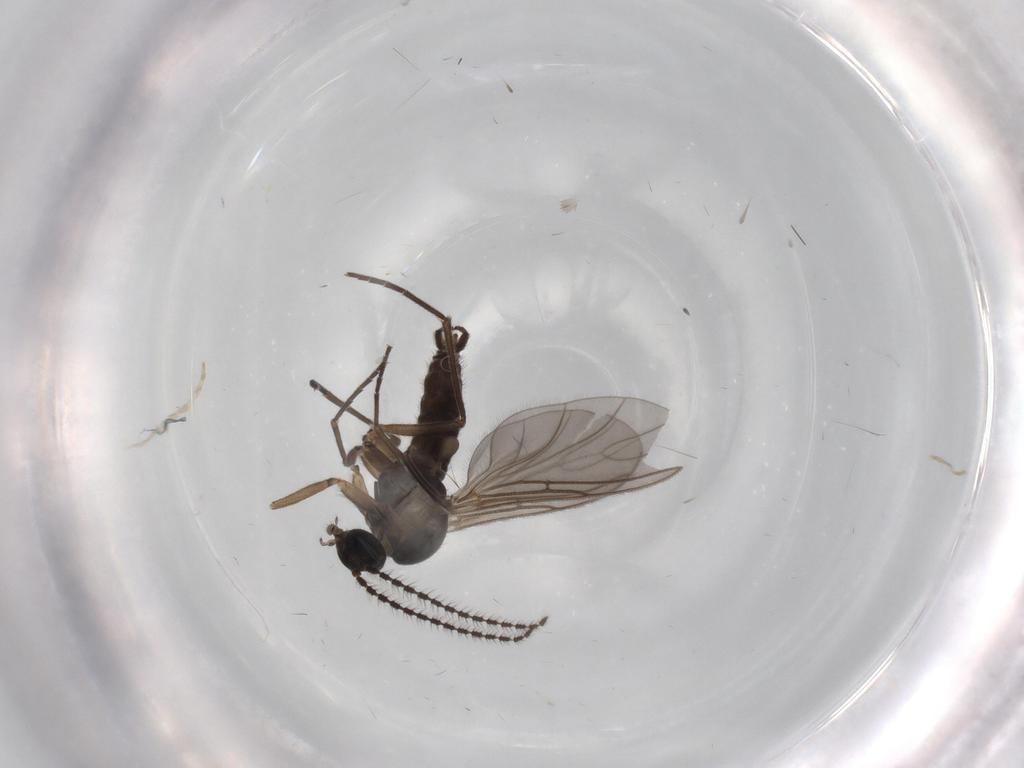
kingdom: Animalia
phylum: Arthropoda
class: Insecta
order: Diptera
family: Sciaridae
